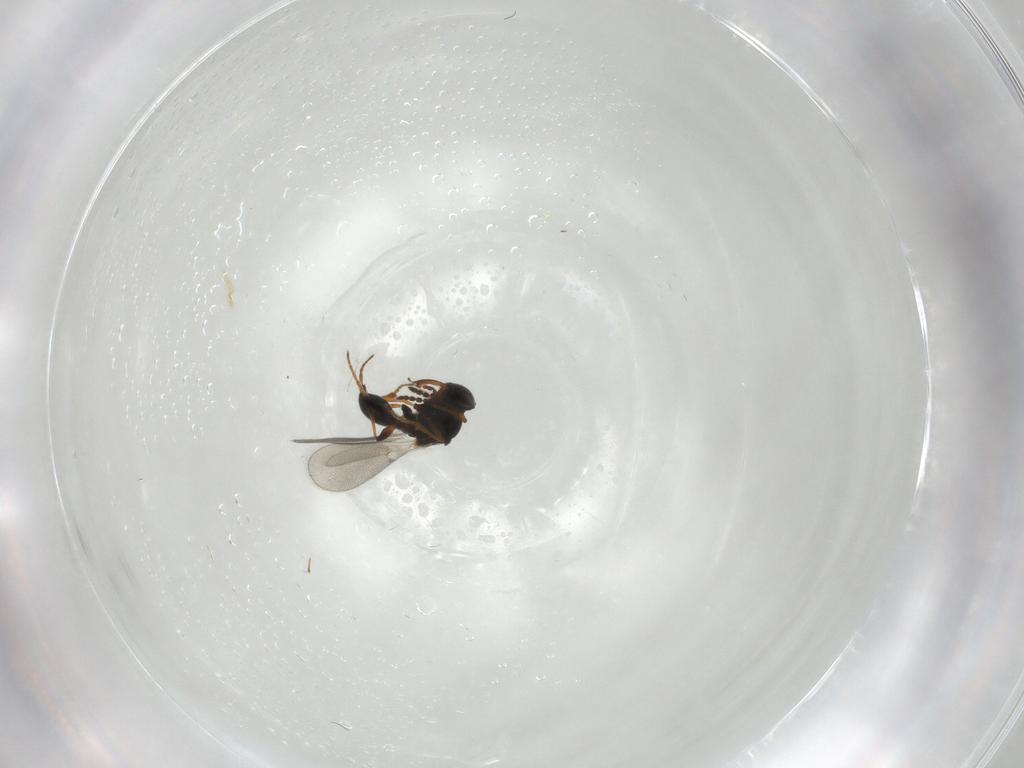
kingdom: Animalia
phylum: Arthropoda
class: Insecta
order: Hymenoptera
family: Platygastridae
